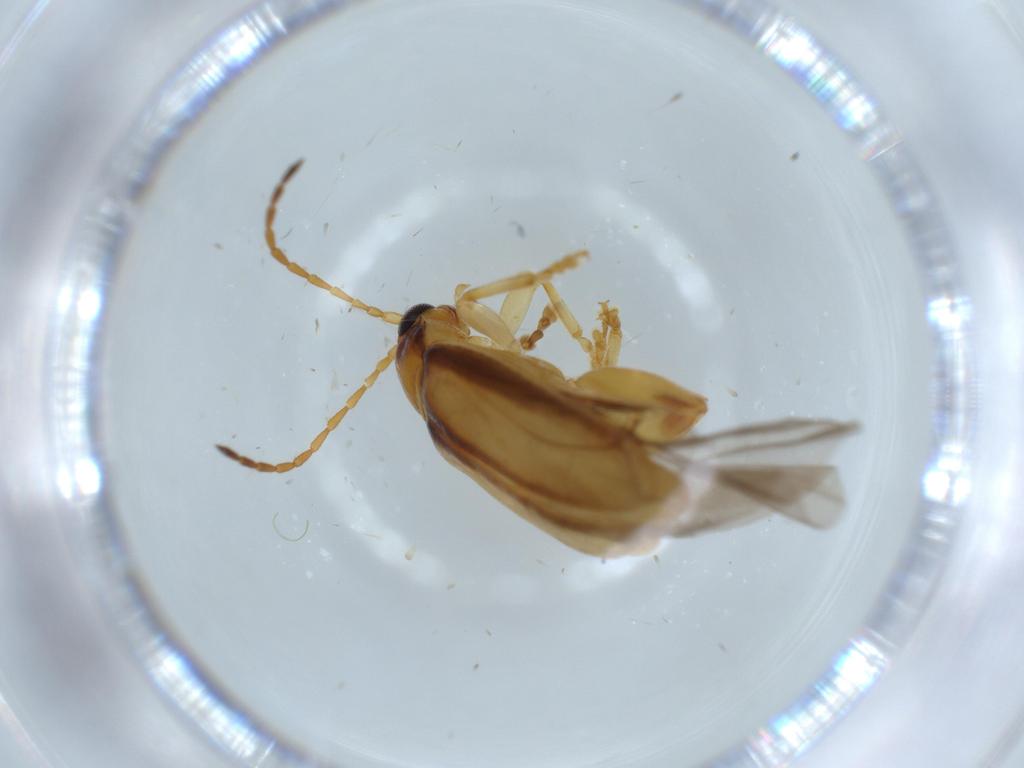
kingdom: Animalia
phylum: Arthropoda
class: Insecta
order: Coleoptera
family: Chrysomelidae
